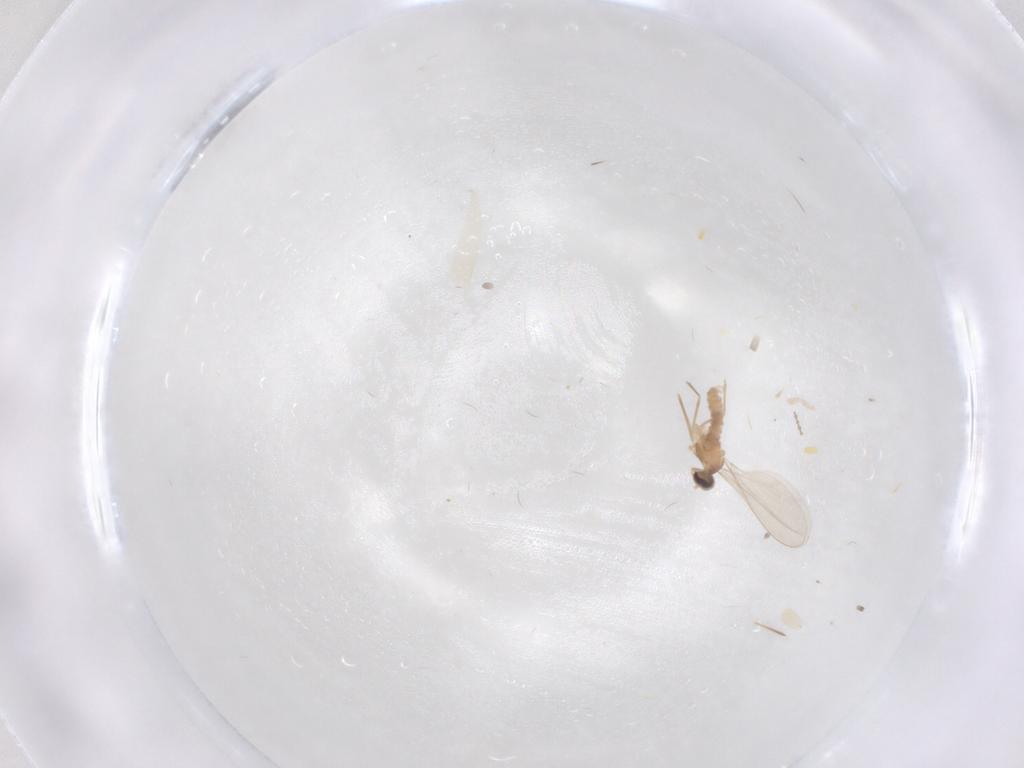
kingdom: Animalia
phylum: Arthropoda
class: Insecta
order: Diptera
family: Cecidomyiidae
